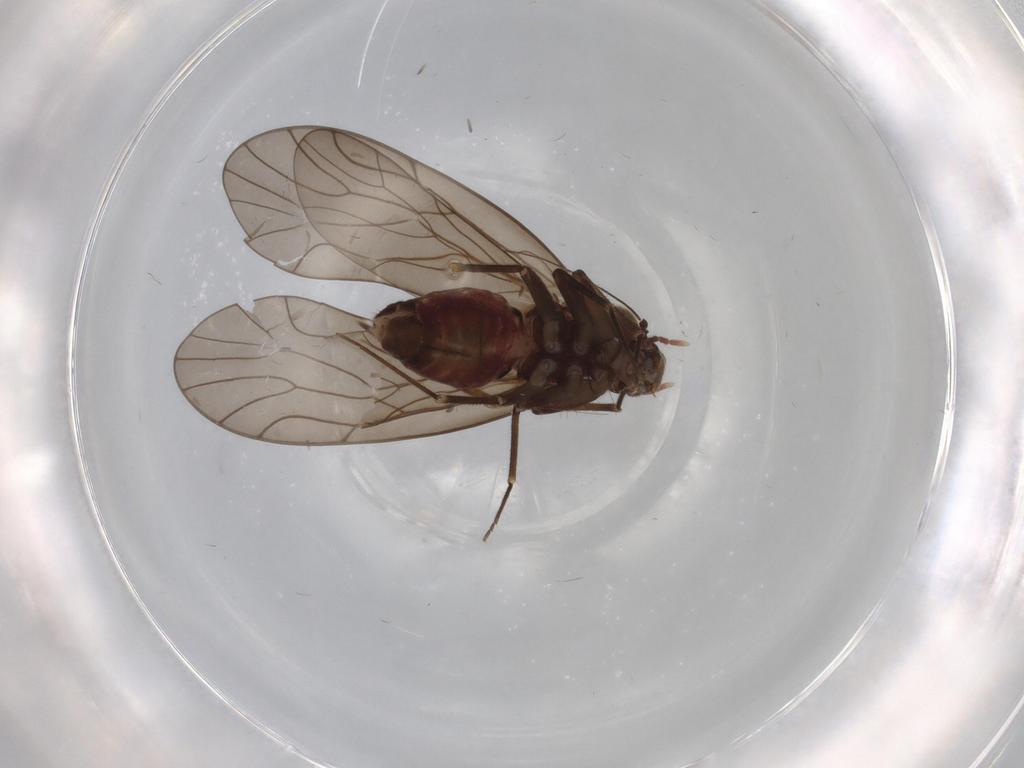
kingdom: Animalia
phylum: Arthropoda
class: Insecta
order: Psocodea
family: Philotarsidae
